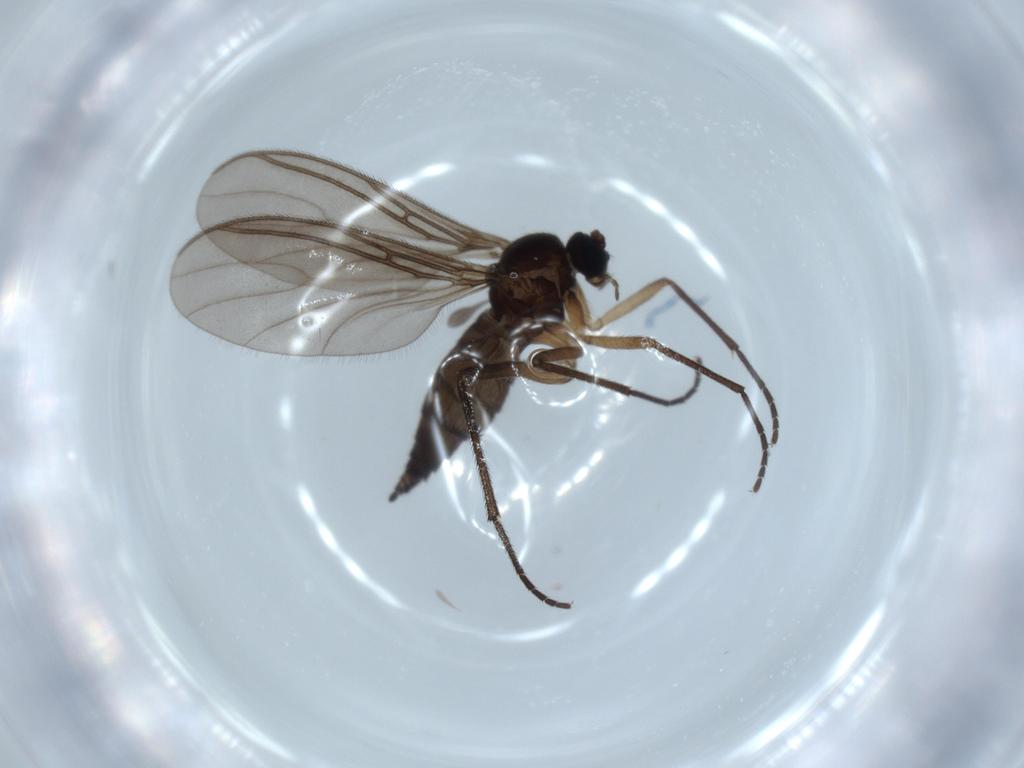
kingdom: Animalia
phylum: Arthropoda
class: Insecta
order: Diptera
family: Sciaridae
